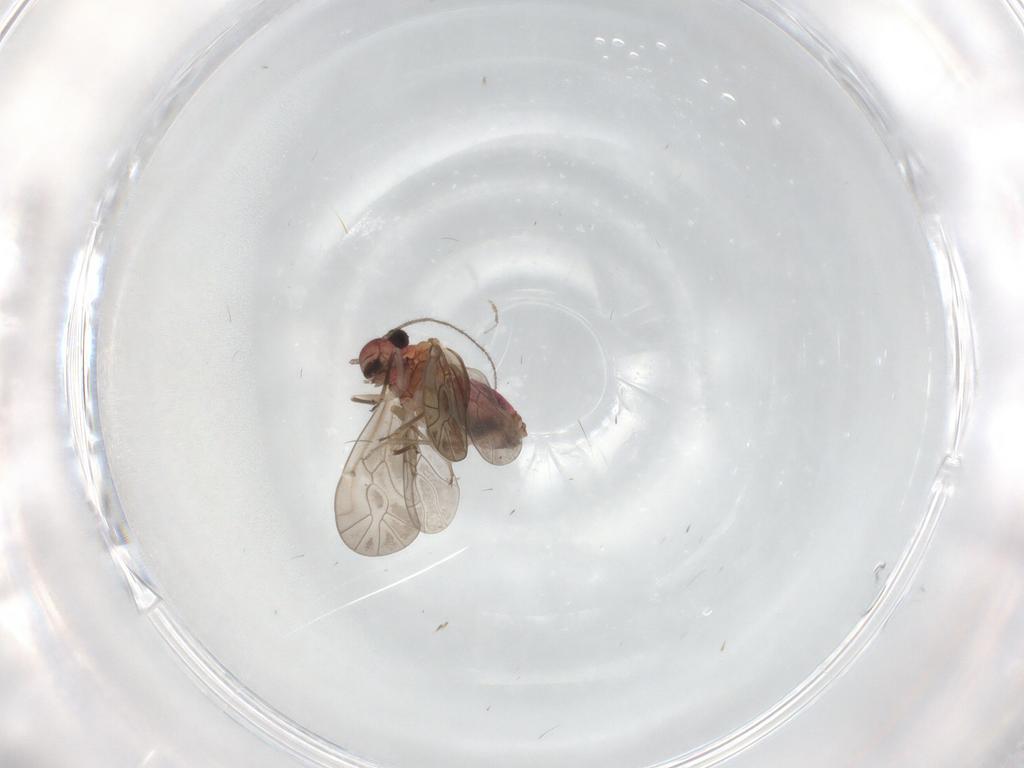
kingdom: Animalia
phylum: Arthropoda
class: Insecta
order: Psocodea
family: Lachesillidae
